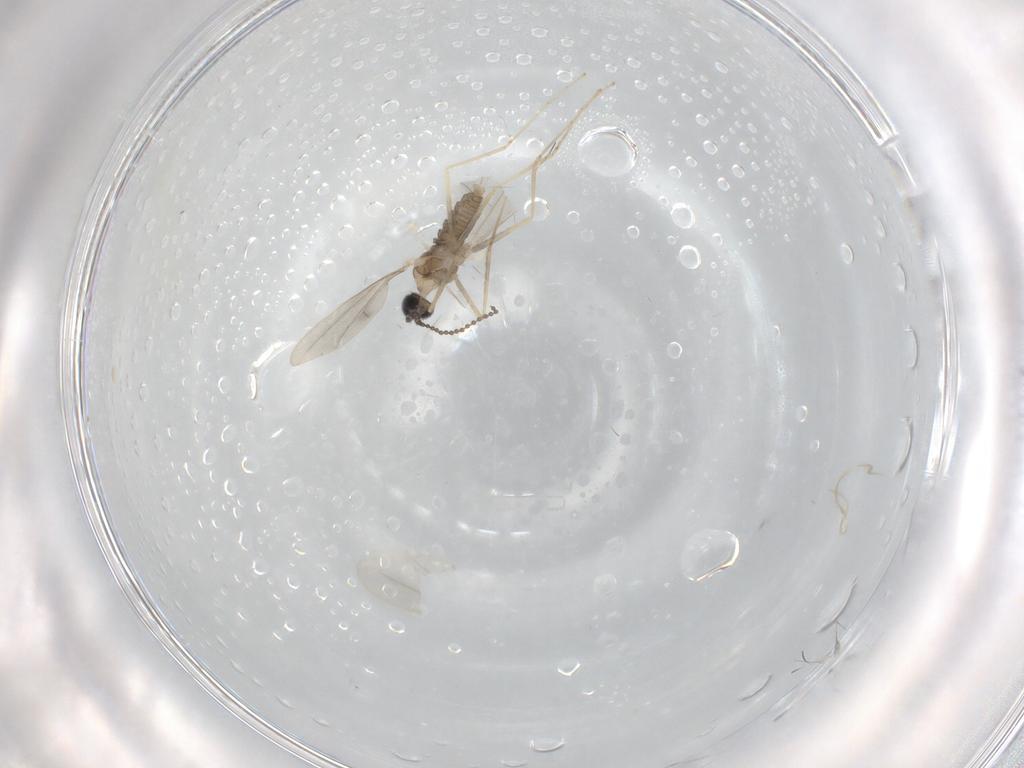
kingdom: Animalia
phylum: Arthropoda
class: Insecta
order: Diptera
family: Cecidomyiidae
